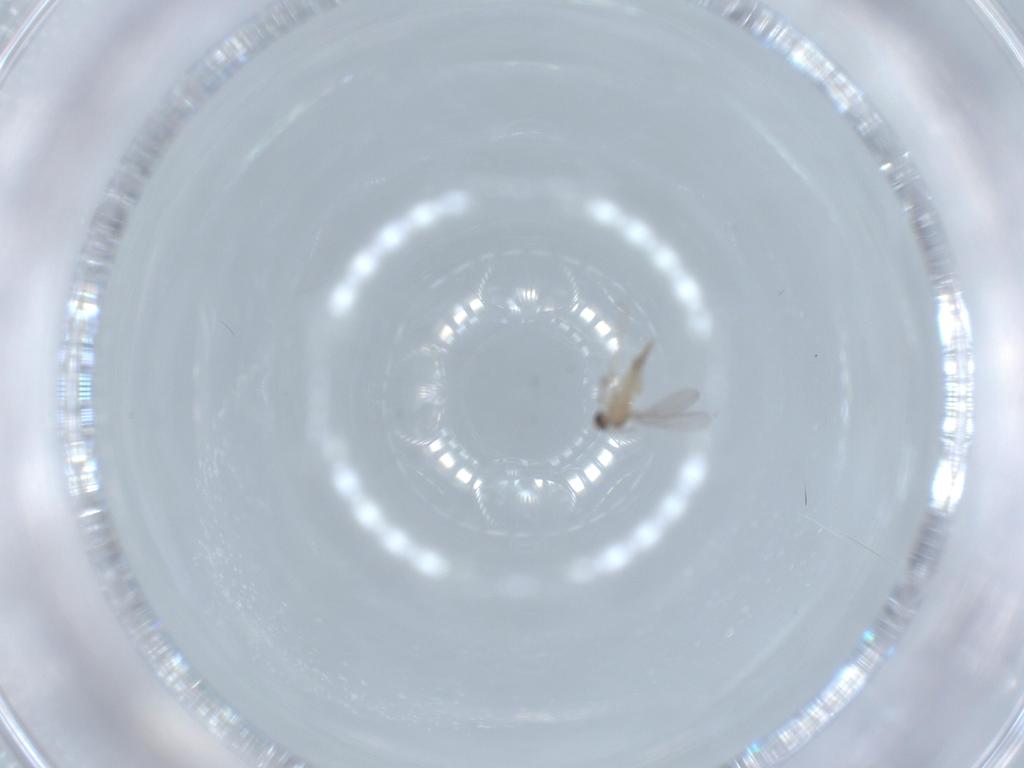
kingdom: Animalia
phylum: Arthropoda
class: Insecta
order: Diptera
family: Cecidomyiidae
